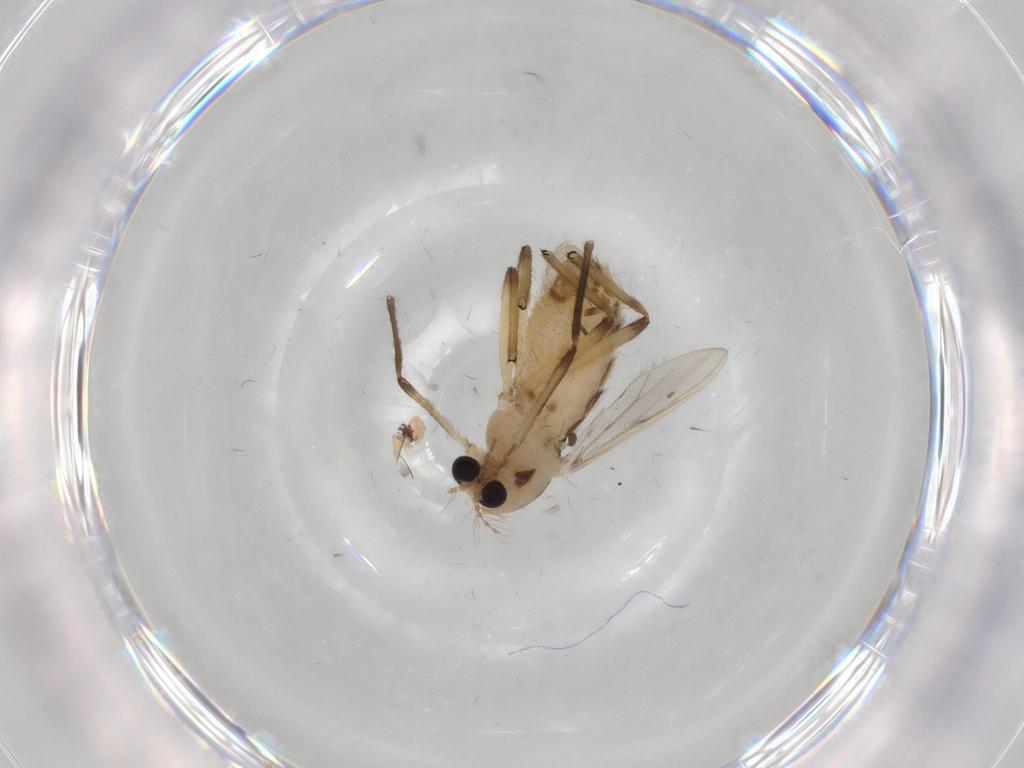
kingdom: Animalia
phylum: Arthropoda
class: Insecta
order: Diptera
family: Chironomidae
